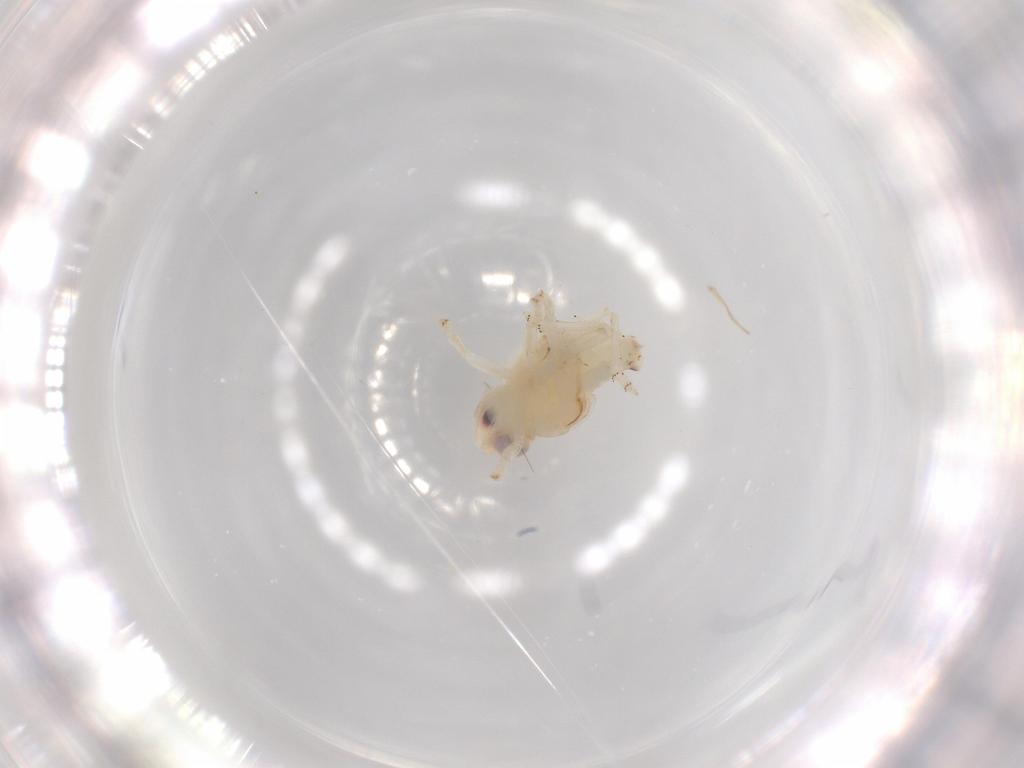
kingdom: Animalia
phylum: Arthropoda
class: Insecta
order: Hemiptera
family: Nogodinidae
